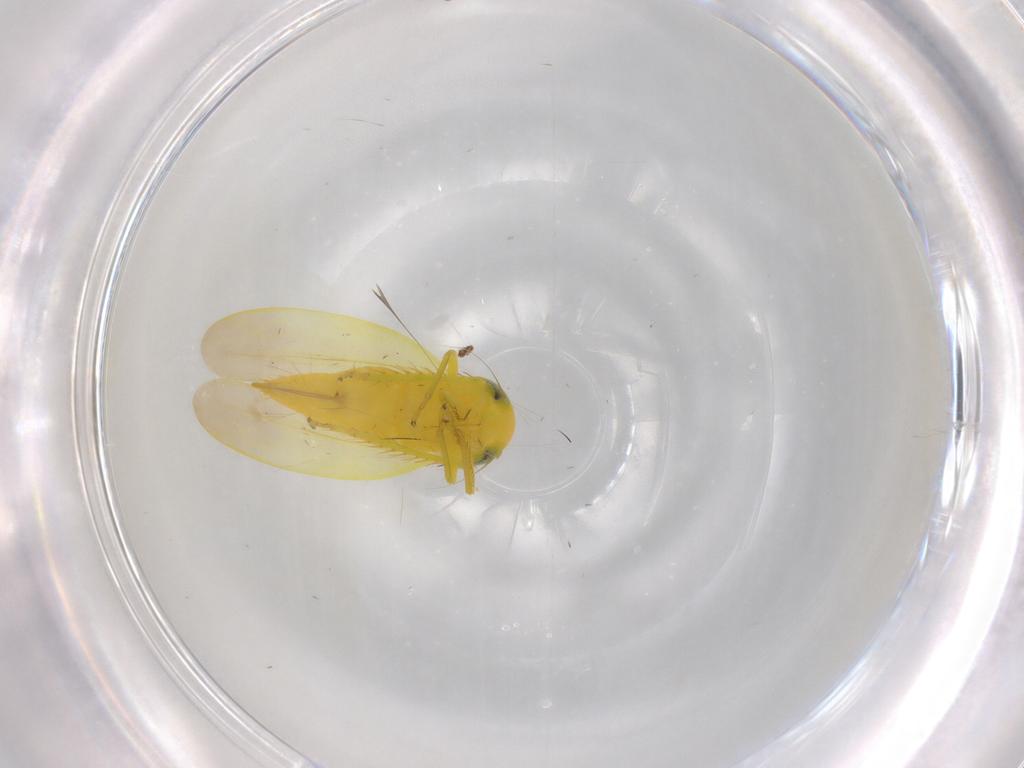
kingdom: Animalia
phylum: Arthropoda
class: Insecta
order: Hemiptera
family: Cicadellidae
